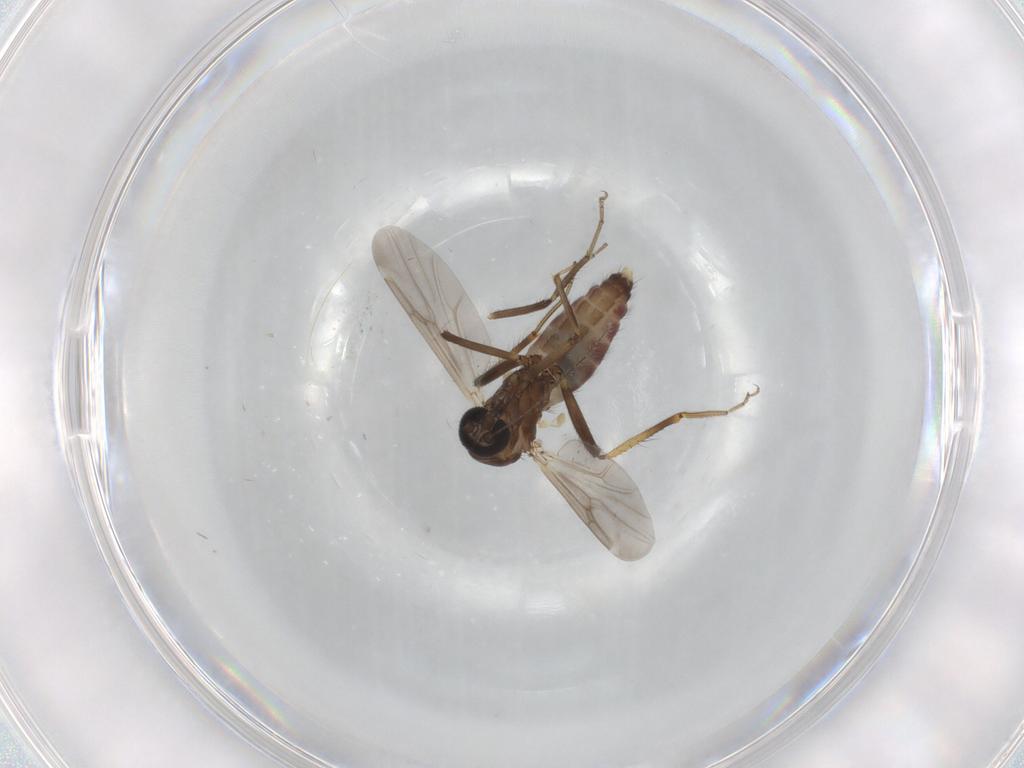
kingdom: Animalia
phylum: Arthropoda
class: Insecta
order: Diptera
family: Ceratopogonidae
